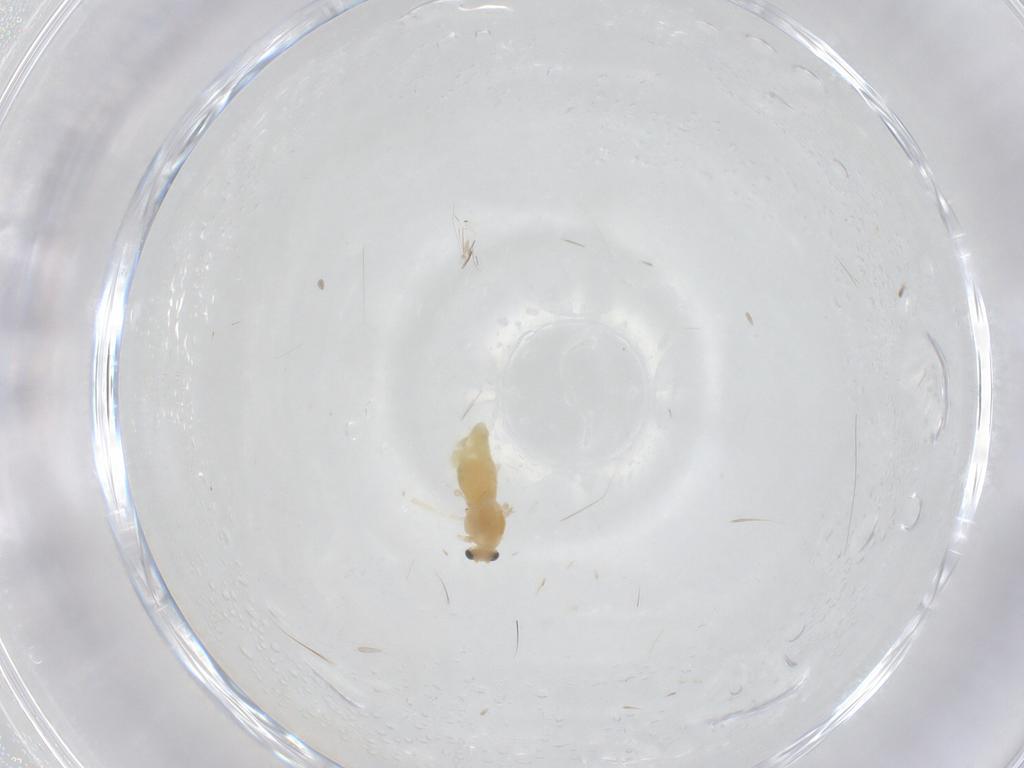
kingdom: Animalia
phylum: Arthropoda
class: Insecta
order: Diptera
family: Chironomidae
